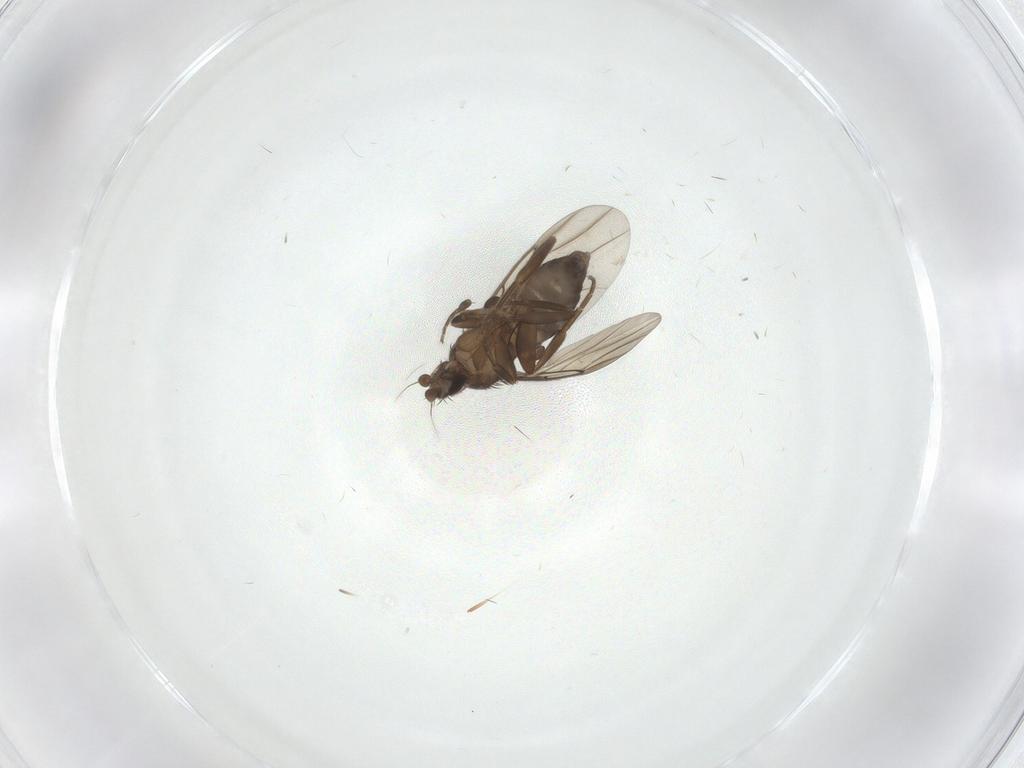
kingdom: Animalia
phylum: Arthropoda
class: Insecta
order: Diptera
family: Phoridae
